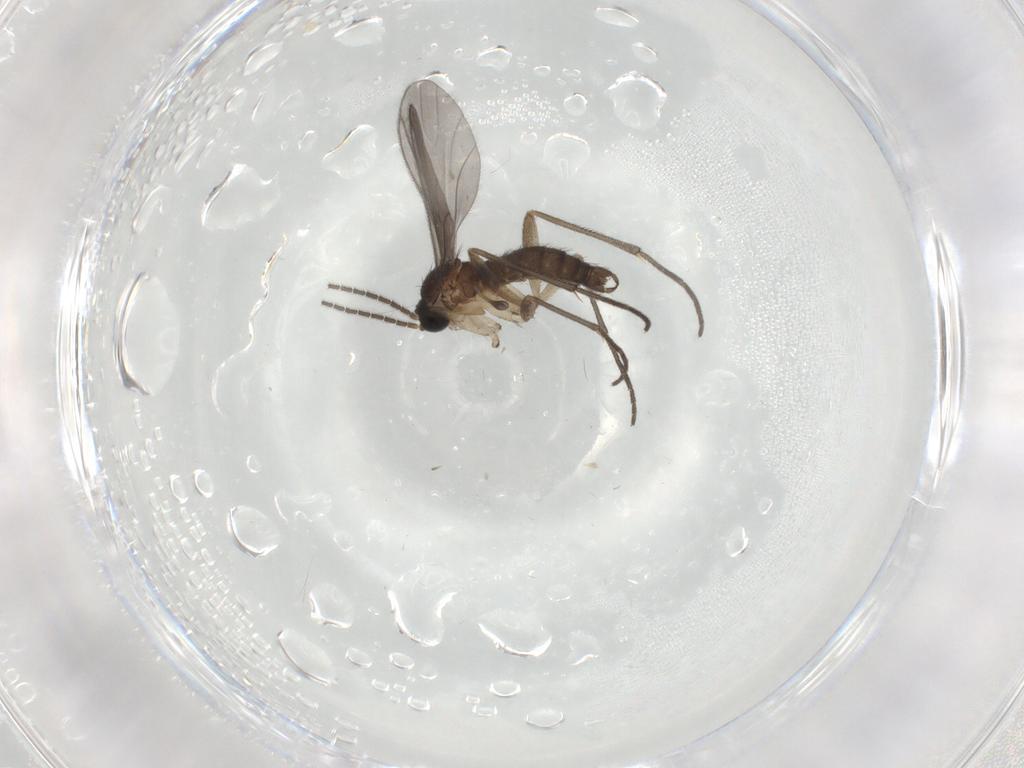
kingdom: Animalia
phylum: Arthropoda
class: Insecta
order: Diptera
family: Sciaridae
